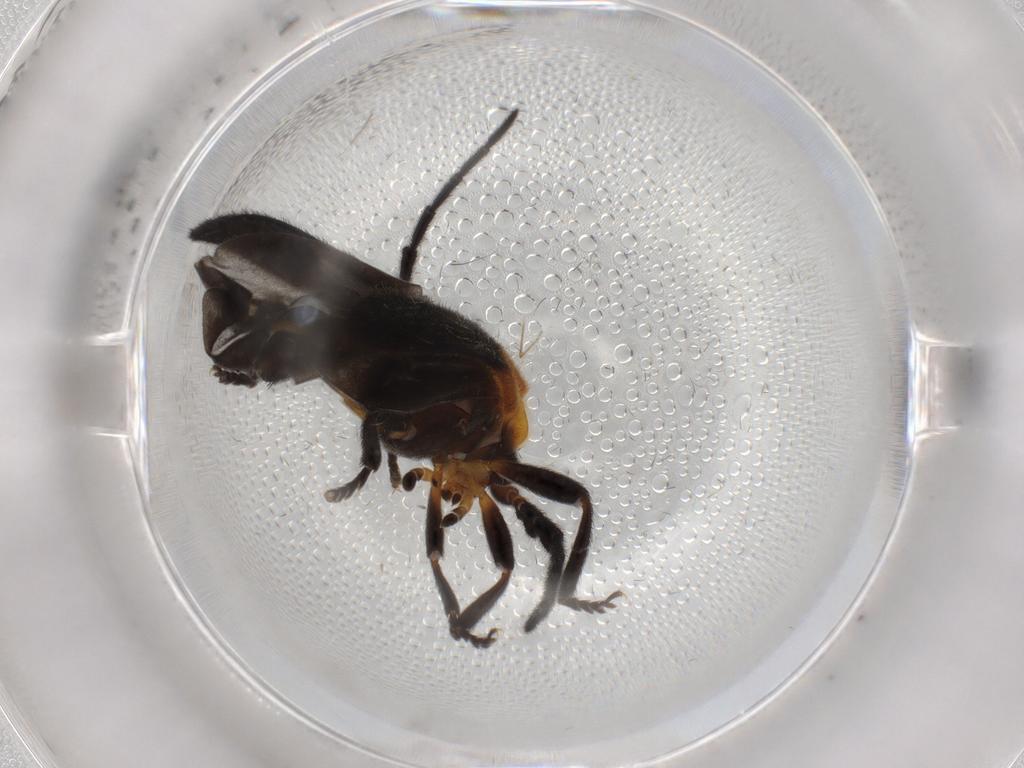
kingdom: Animalia
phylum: Arthropoda
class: Insecta
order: Coleoptera
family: Lycidae
